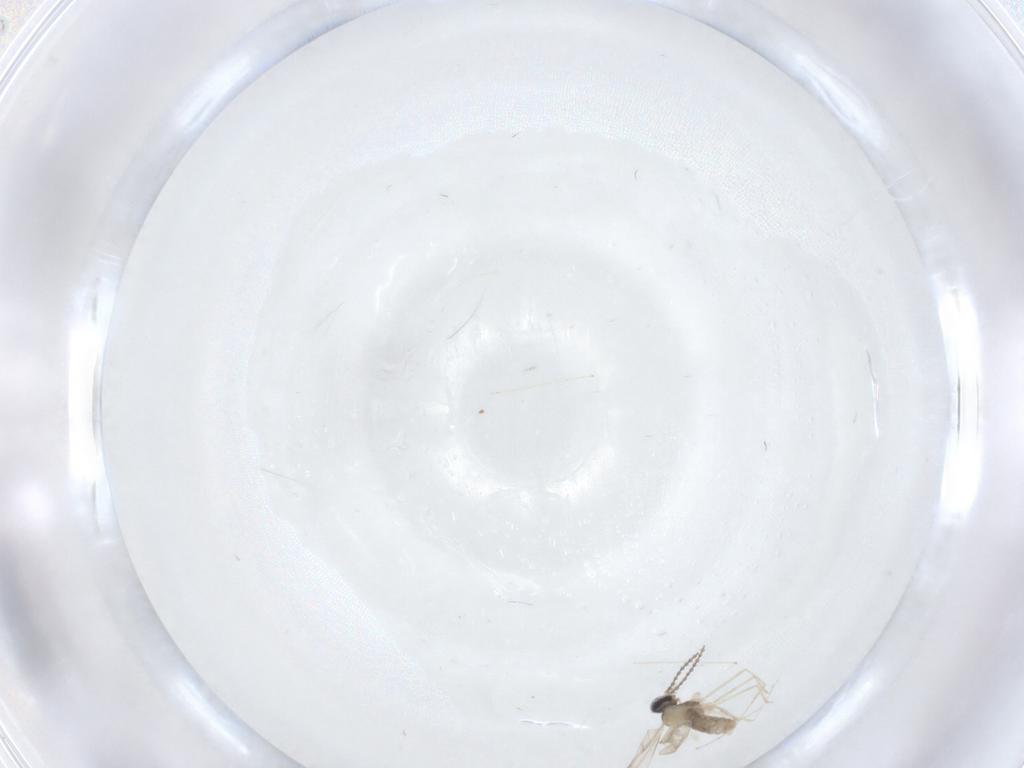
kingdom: Animalia
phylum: Arthropoda
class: Insecta
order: Diptera
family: Cecidomyiidae
